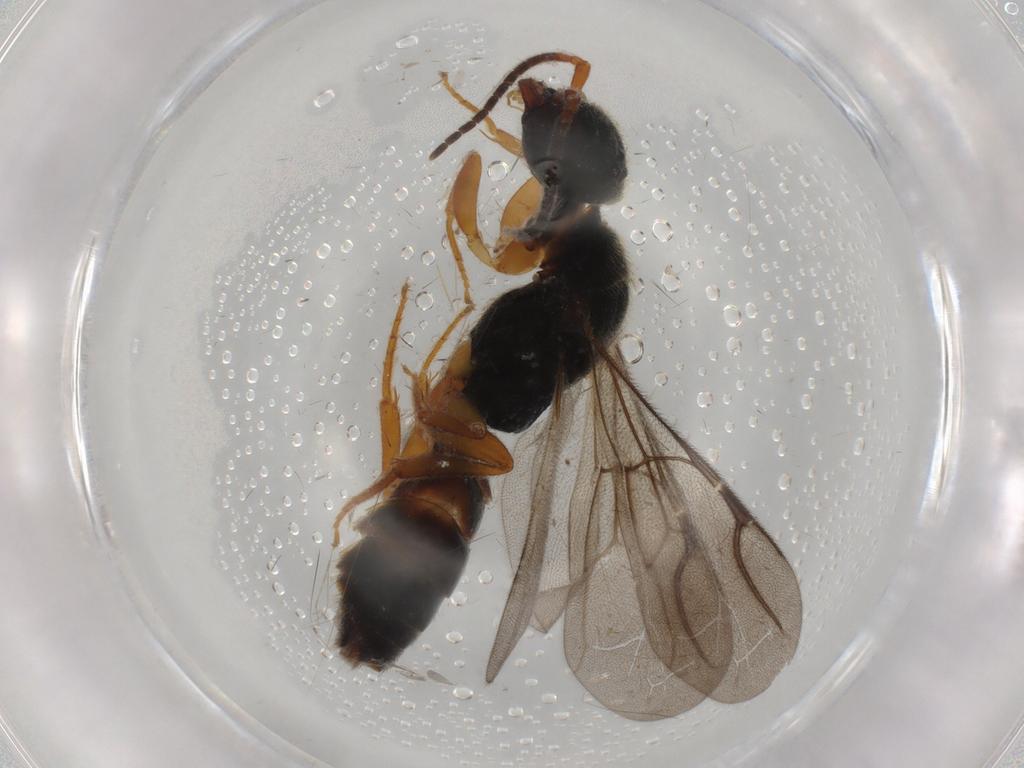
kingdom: Animalia
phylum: Arthropoda
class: Insecta
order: Hymenoptera
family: Bethylidae
